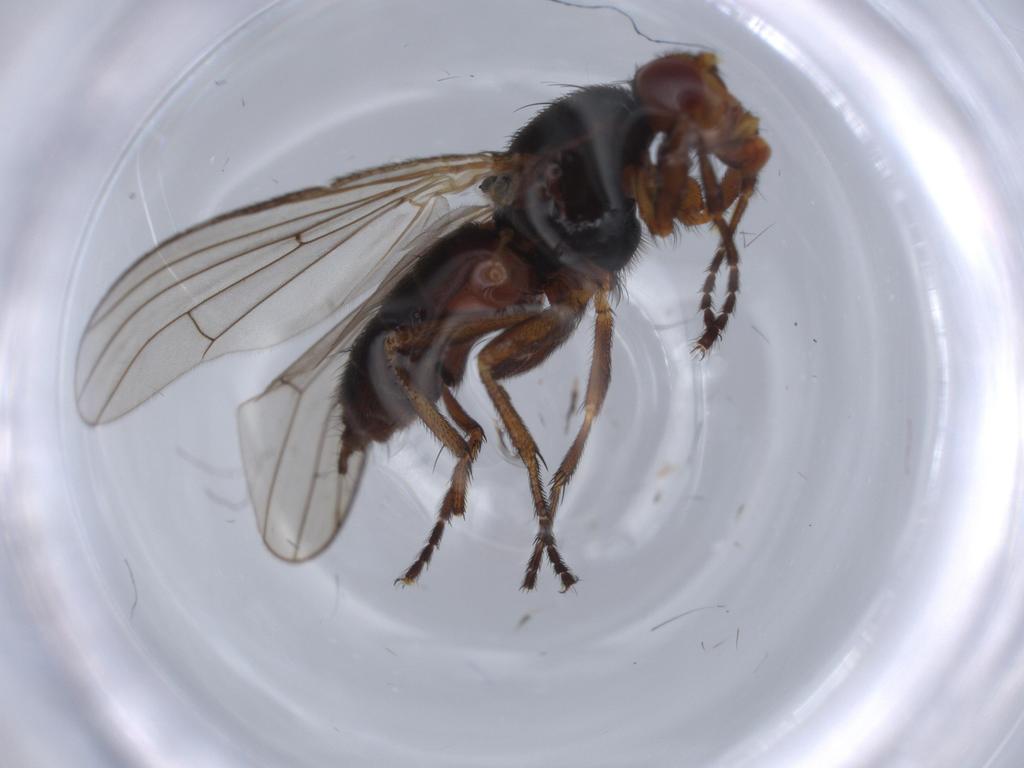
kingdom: Animalia
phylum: Arthropoda
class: Insecta
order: Diptera
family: Heleomyzidae
